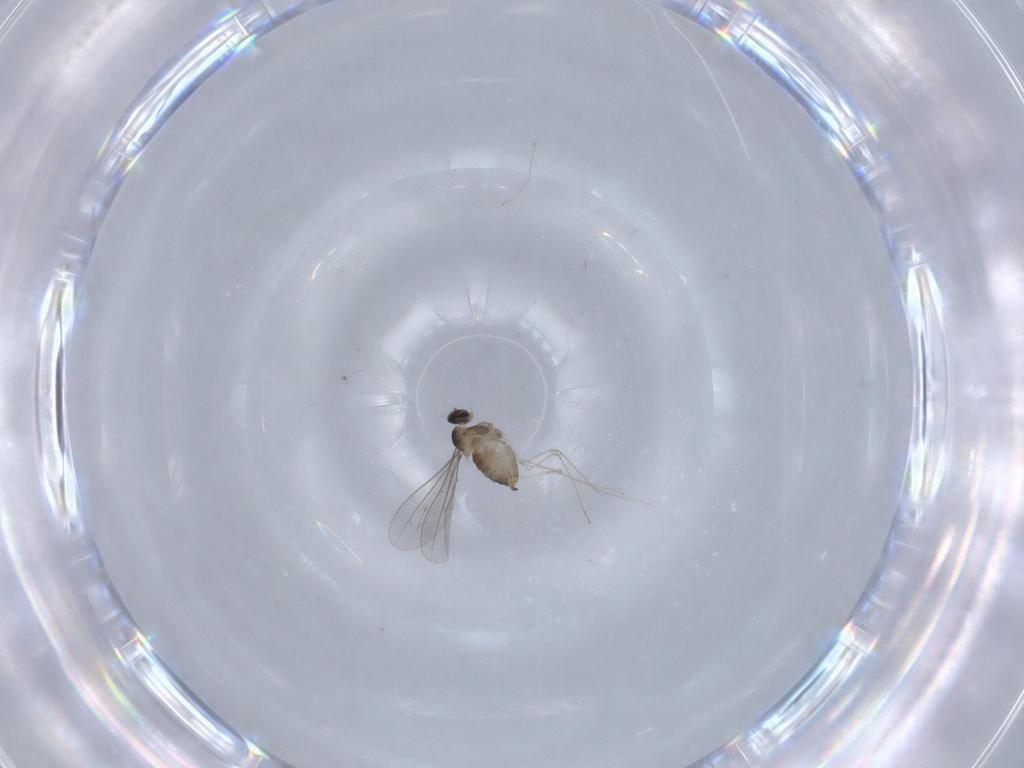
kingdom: Animalia
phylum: Arthropoda
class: Insecta
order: Diptera
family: Cecidomyiidae
